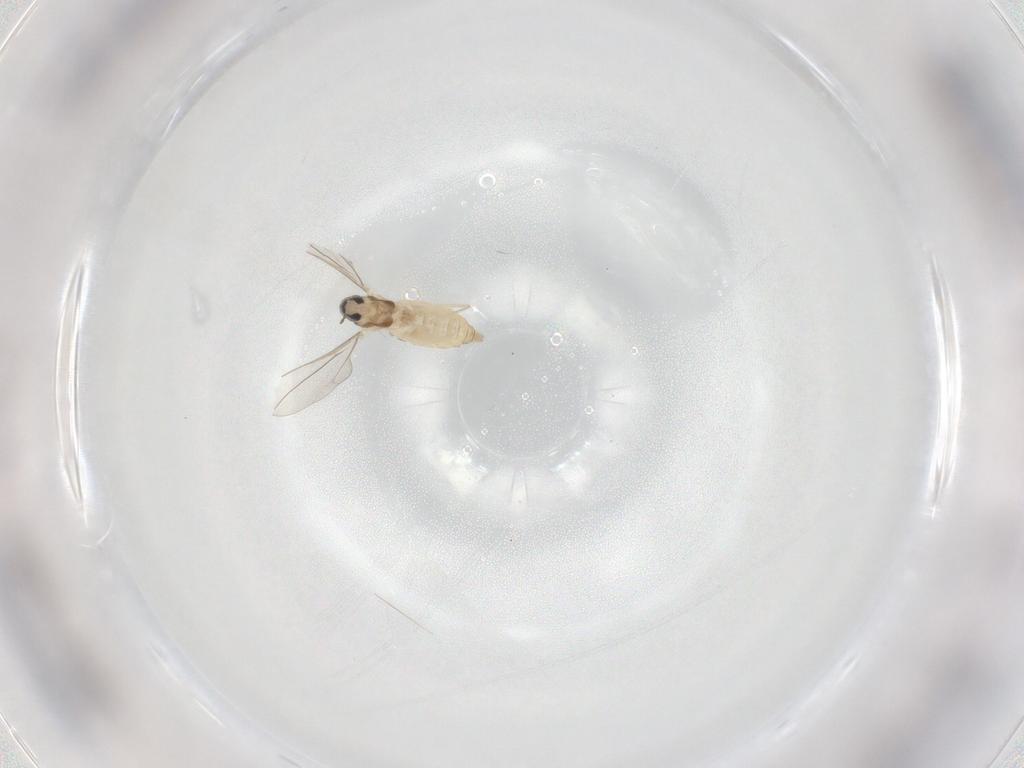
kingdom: Animalia
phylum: Arthropoda
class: Insecta
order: Diptera
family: Cecidomyiidae
